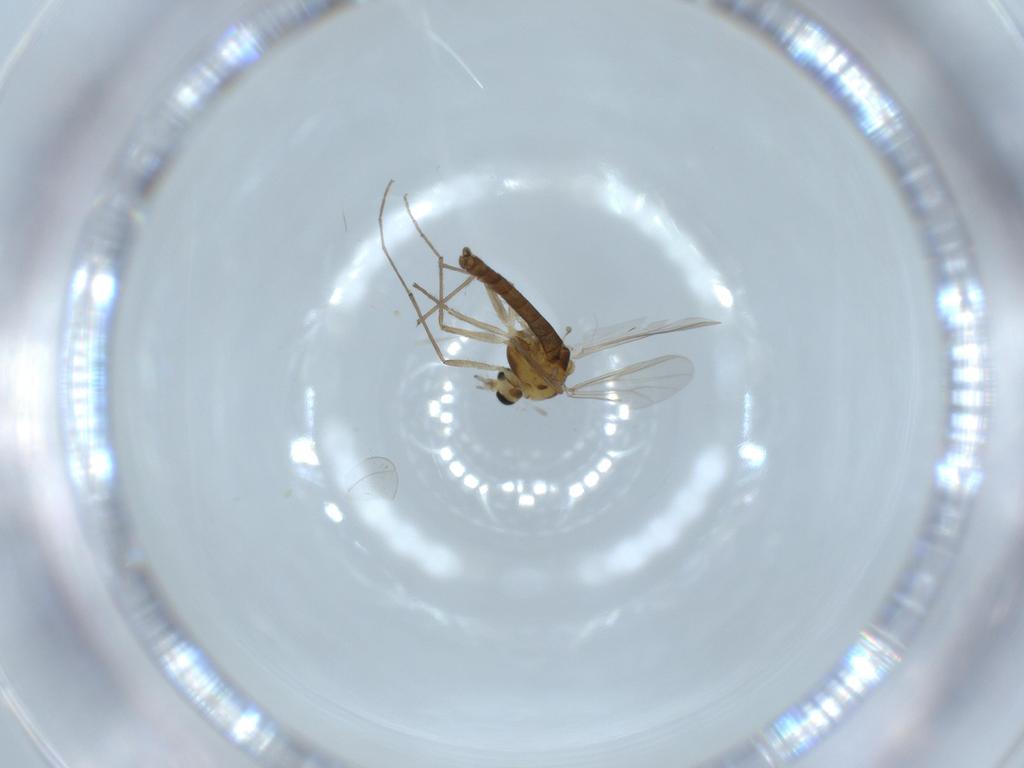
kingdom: Animalia
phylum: Arthropoda
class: Insecta
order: Diptera
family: Chironomidae
